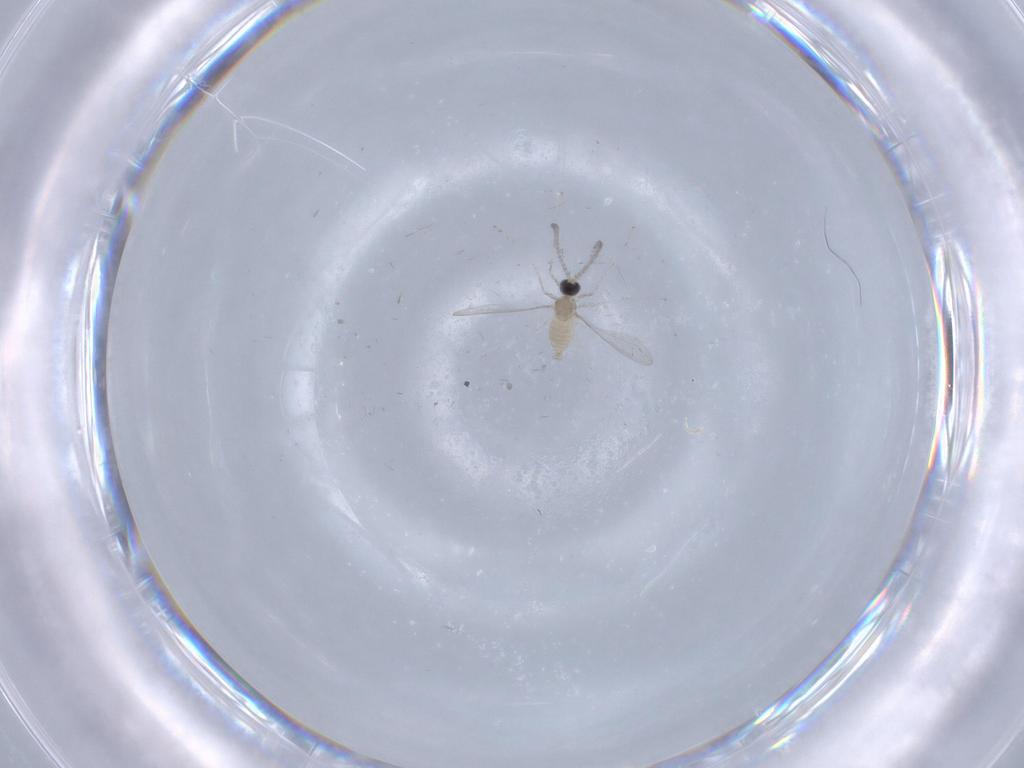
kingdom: Animalia
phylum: Arthropoda
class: Insecta
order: Diptera
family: Cecidomyiidae
